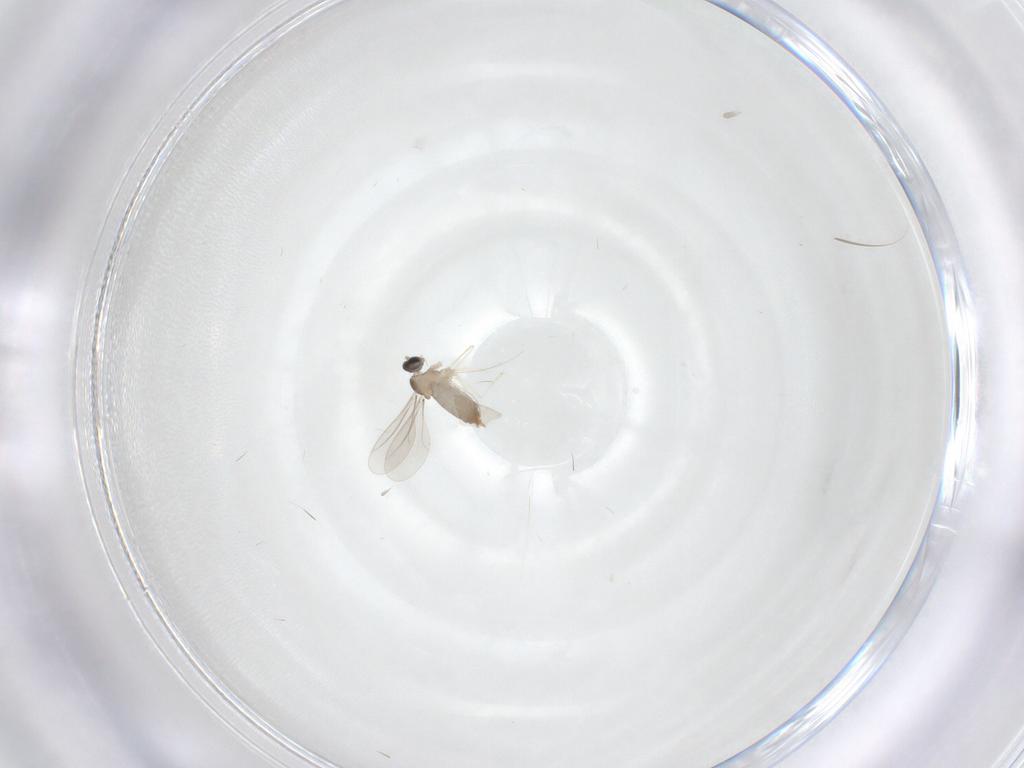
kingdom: Animalia
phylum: Arthropoda
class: Insecta
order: Diptera
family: Cecidomyiidae
